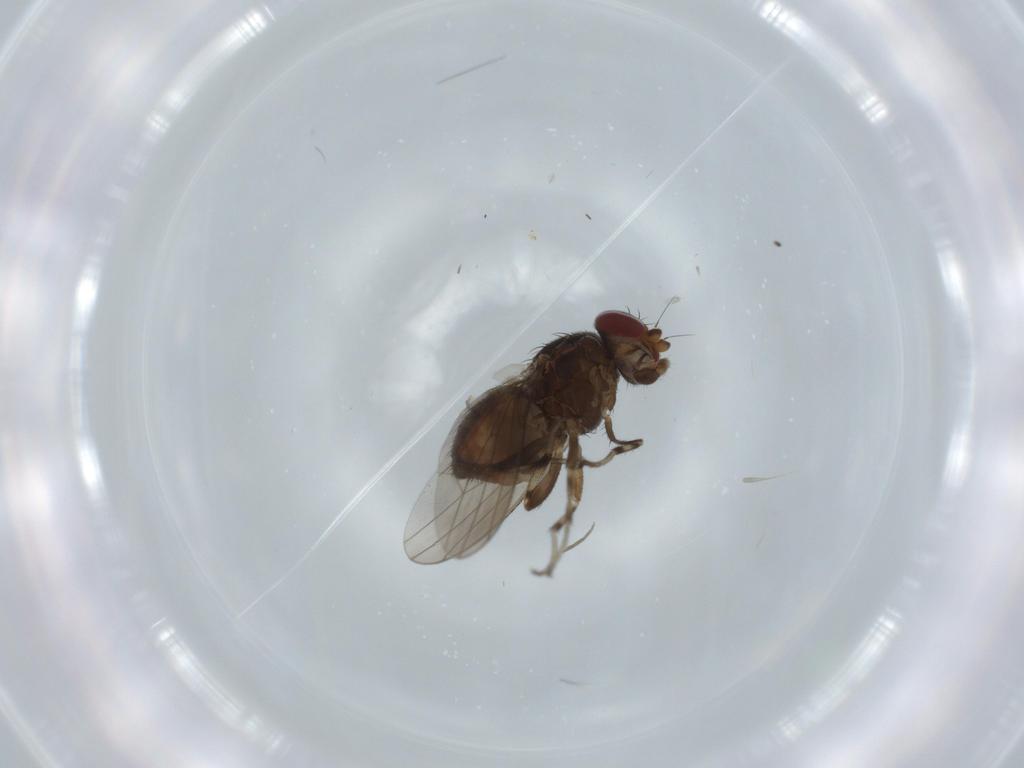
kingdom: Animalia
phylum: Arthropoda
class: Insecta
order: Diptera
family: Heleomyzidae
